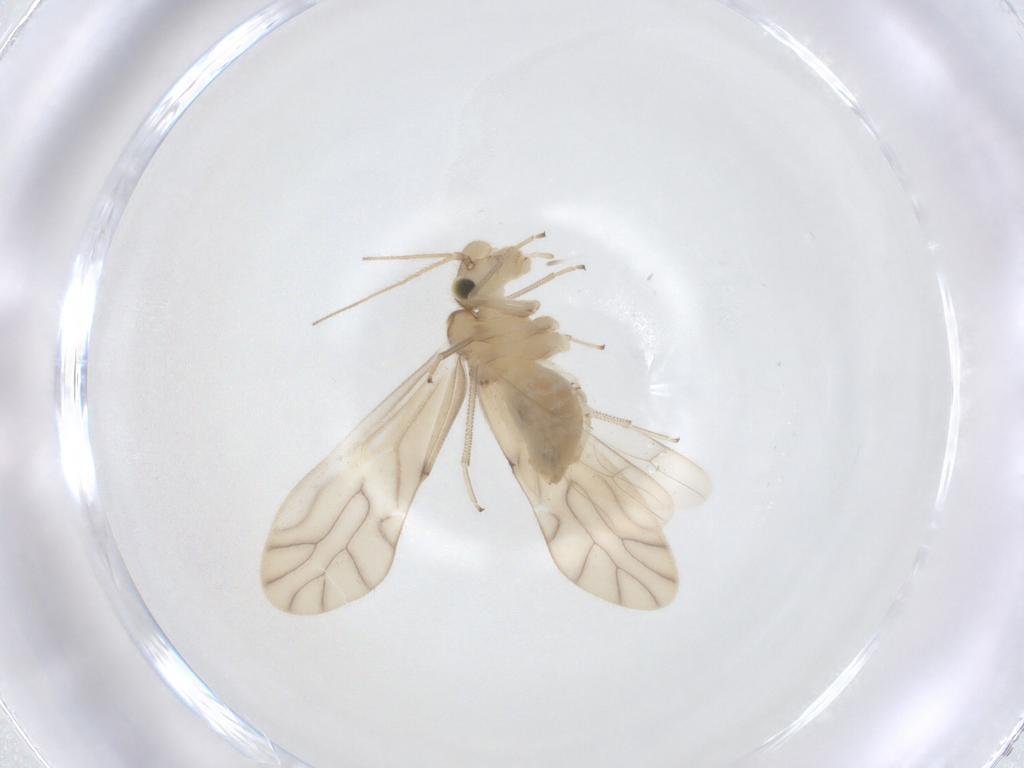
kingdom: Animalia
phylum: Arthropoda
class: Insecta
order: Psocodea
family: Caeciliusidae
